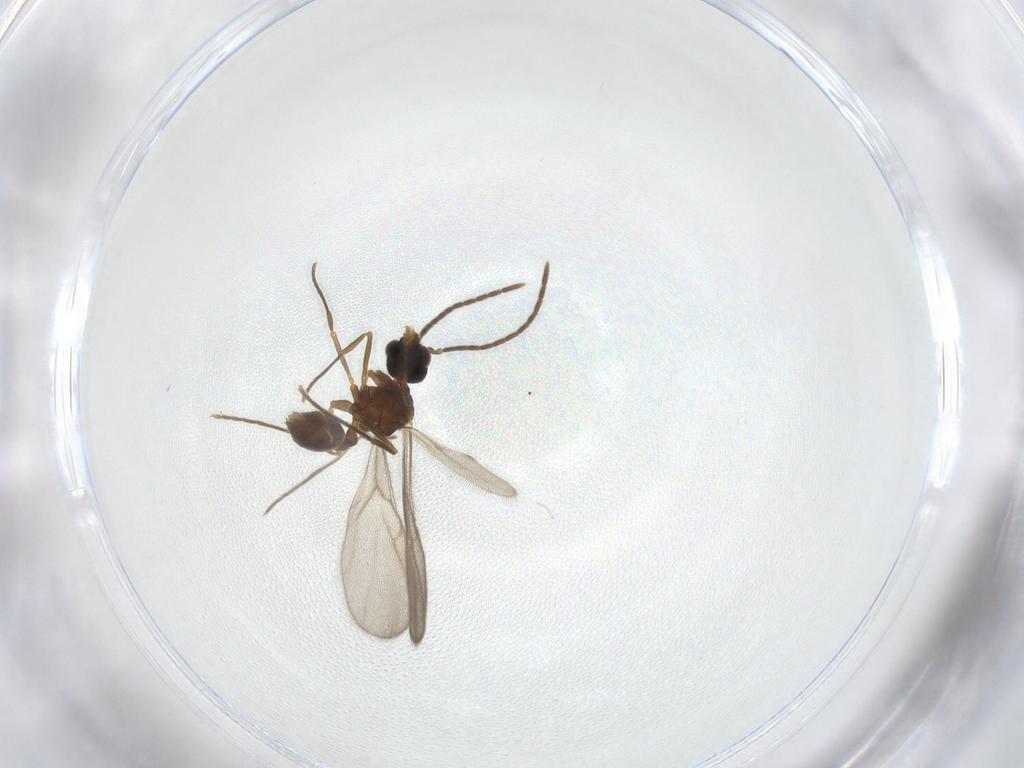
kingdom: Animalia
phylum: Arthropoda
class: Insecta
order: Hymenoptera
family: Formicidae
